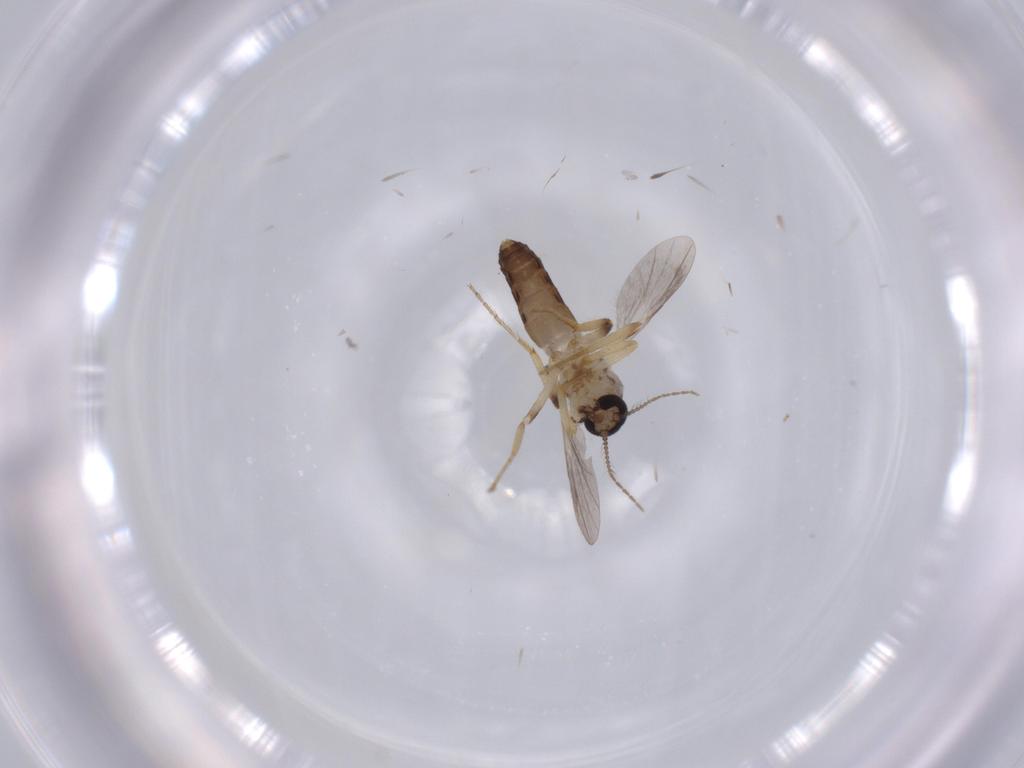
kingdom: Animalia
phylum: Arthropoda
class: Insecta
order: Diptera
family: Ceratopogonidae
